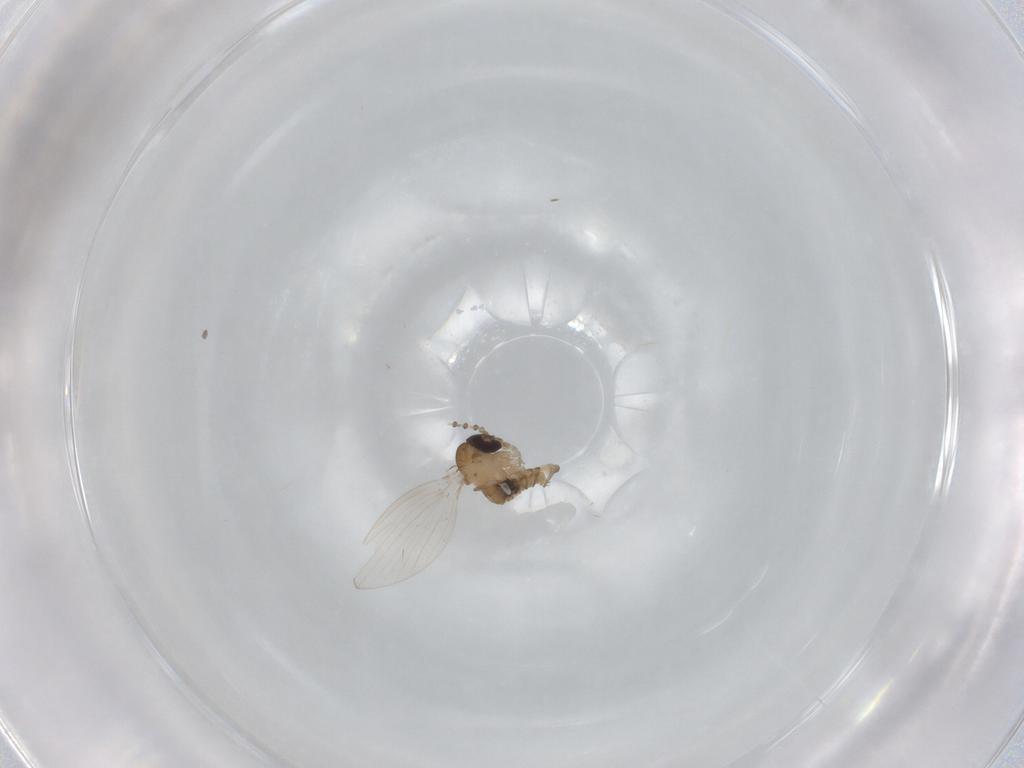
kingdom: Animalia
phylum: Arthropoda
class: Insecta
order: Diptera
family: Psychodidae
